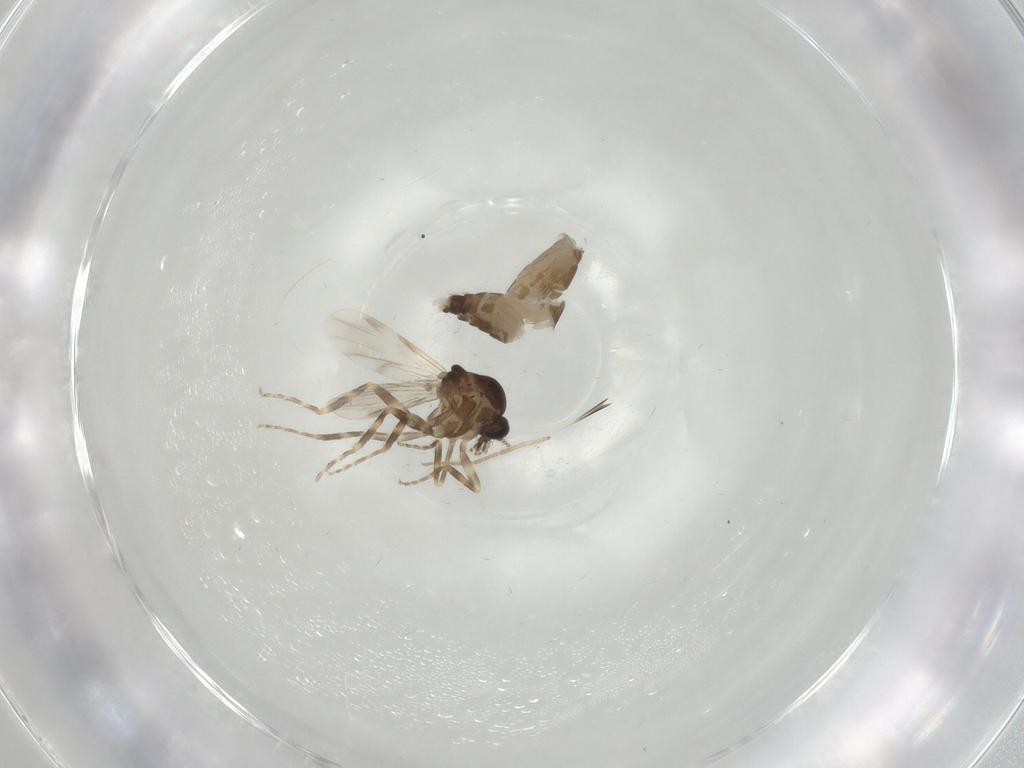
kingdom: Animalia
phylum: Arthropoda
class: Insecta
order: Diptera
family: Ceratopogonidae
